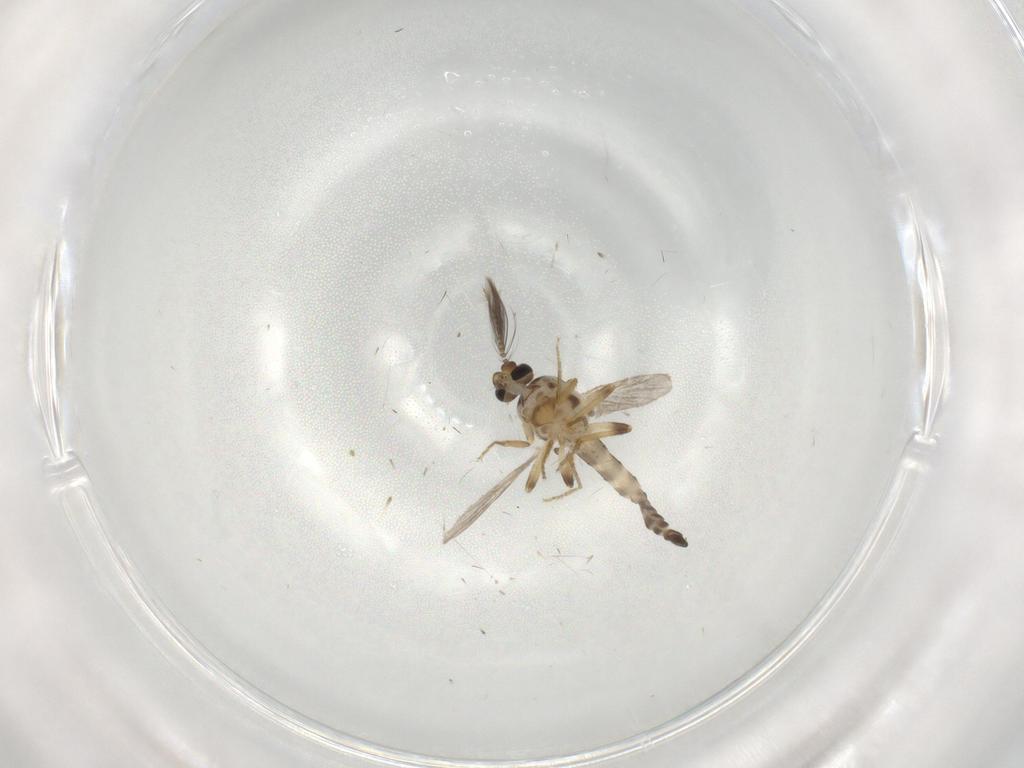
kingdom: Animalia
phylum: Arthropoda
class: Insecta
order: Diptera
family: Ceratopogonidae
